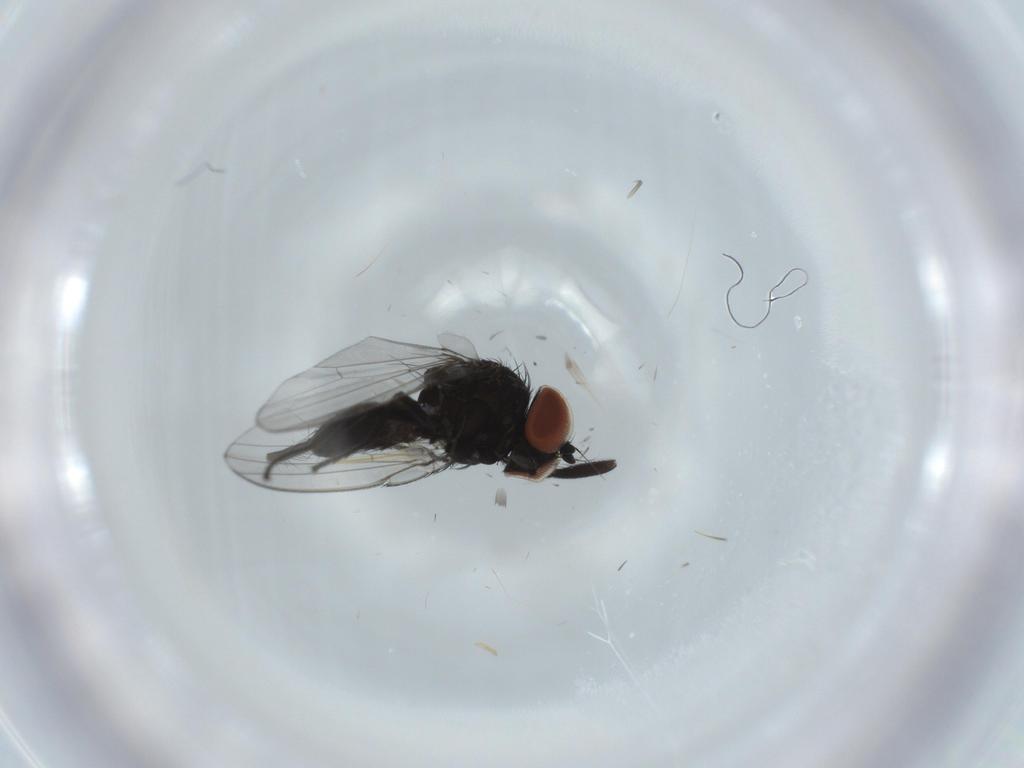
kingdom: Animalia
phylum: Arthropoda
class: Insecta
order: Diptera
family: Milichiidae
